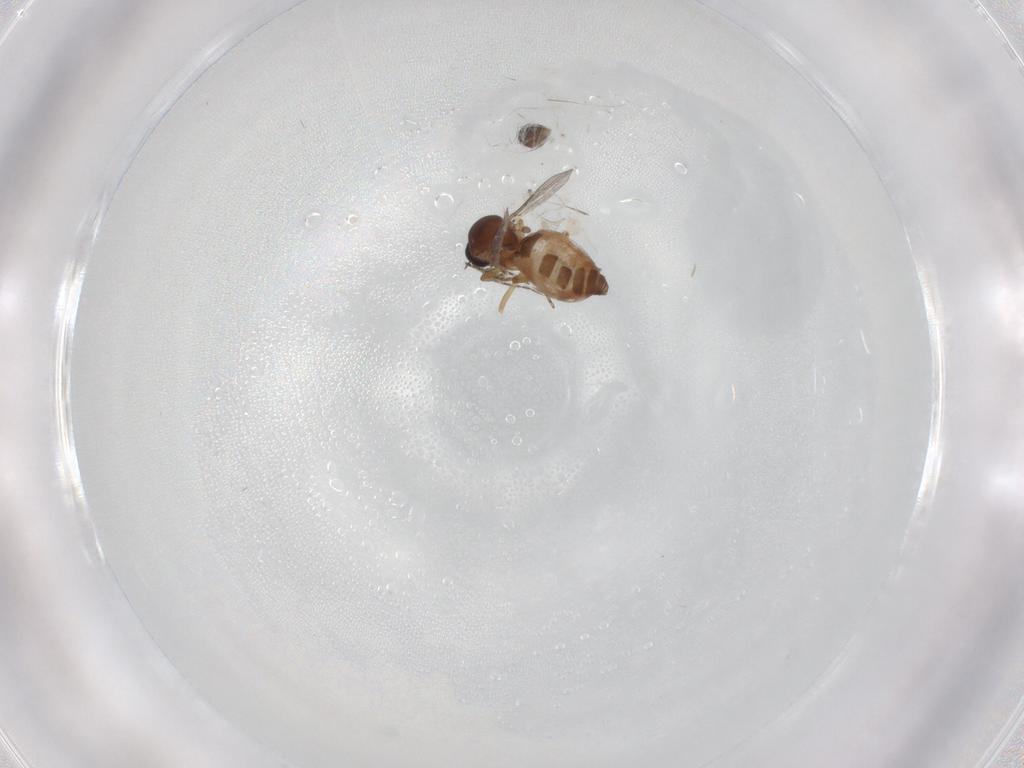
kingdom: Animalia
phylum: Arthropoda
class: Insecta
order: Diptera
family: Ceratopogonidae
